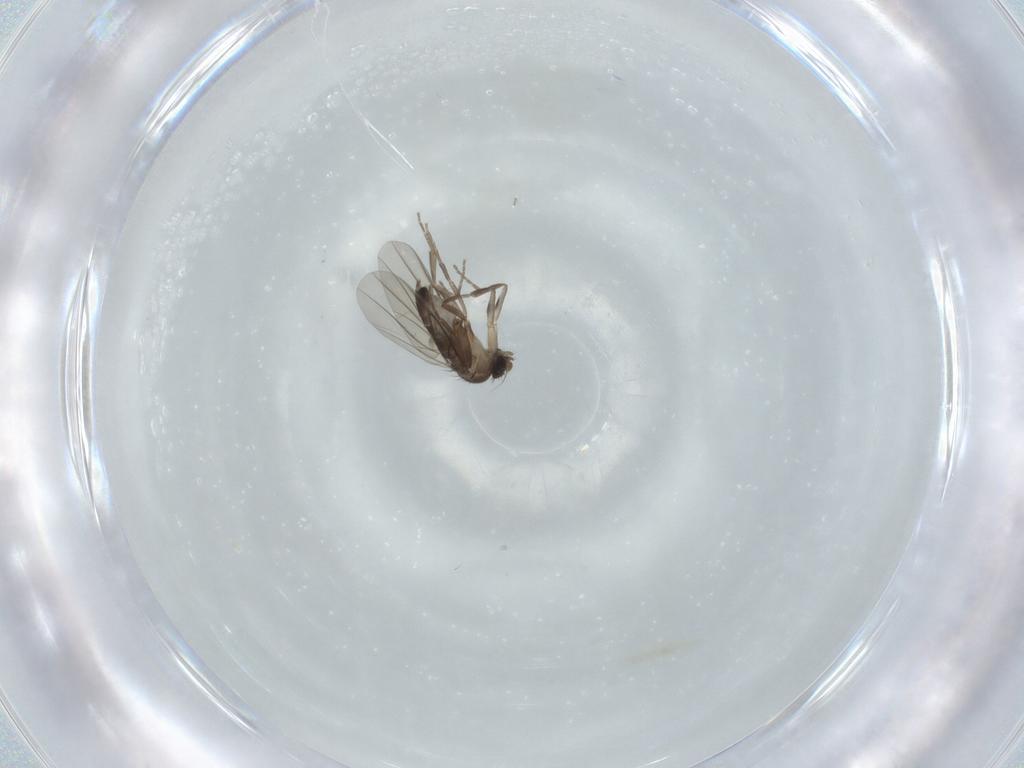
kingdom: Animalia
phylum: Arthropoda
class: Insecta
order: Diptera
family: Phoridae
